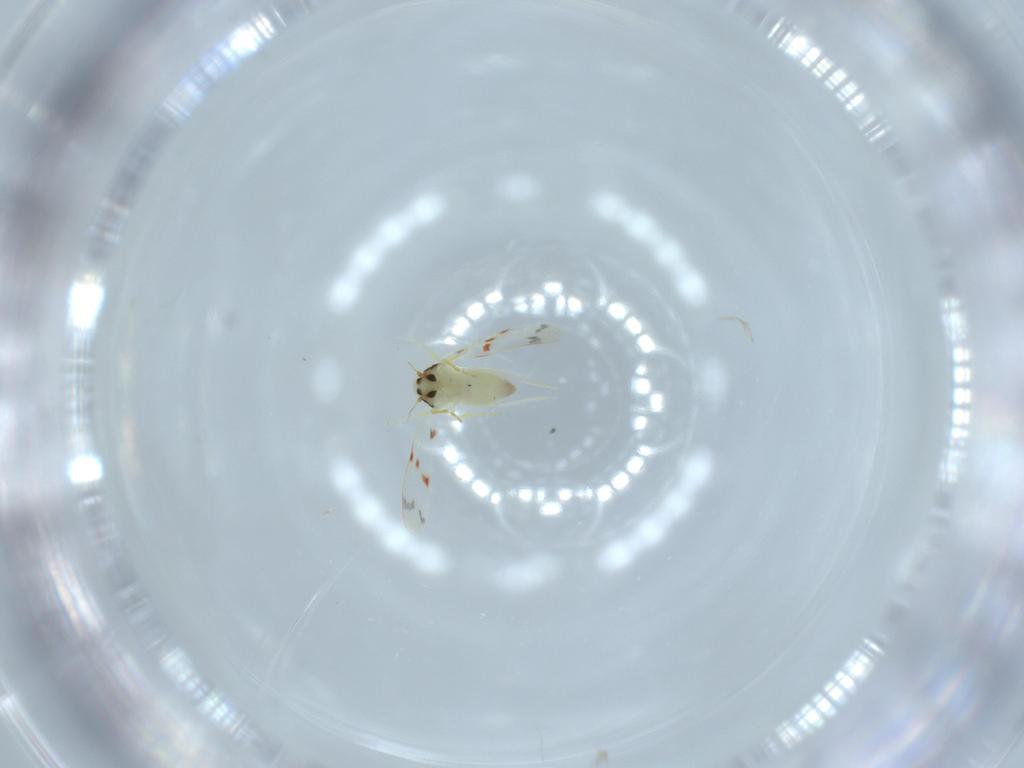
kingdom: Animalia
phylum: Arthropoda
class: Insecta
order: Hemiptera
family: Aleyrodidae
